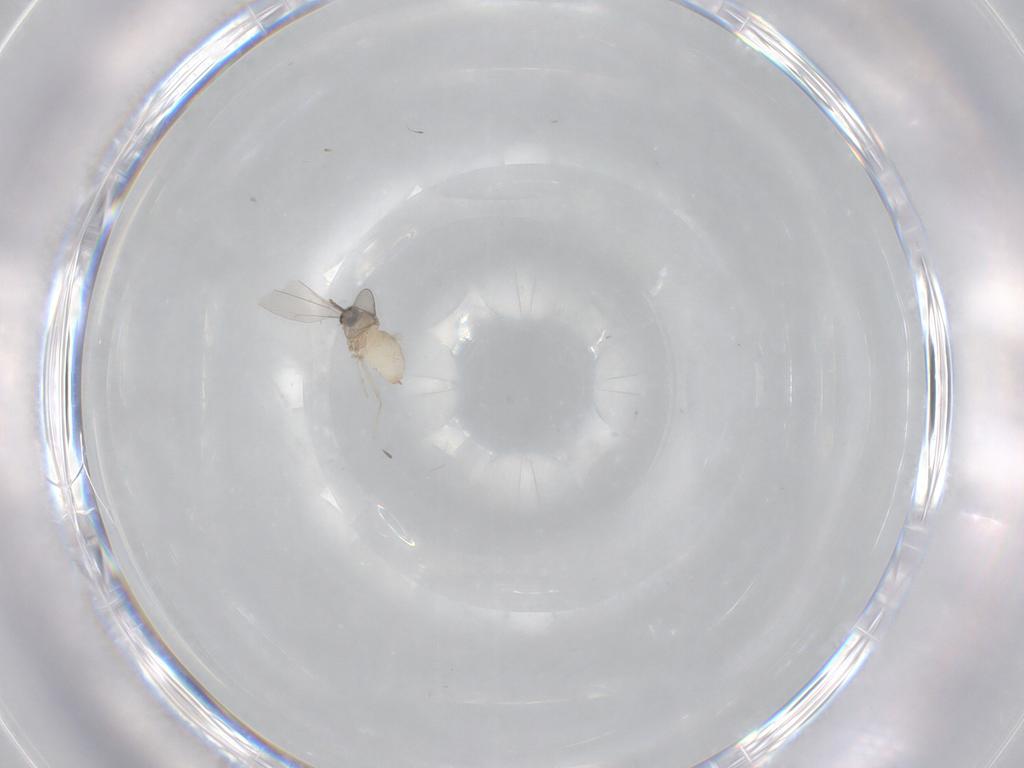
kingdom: Animalia
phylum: Arthropoda
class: Insecta
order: Diptera
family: Cecidomyiidae
